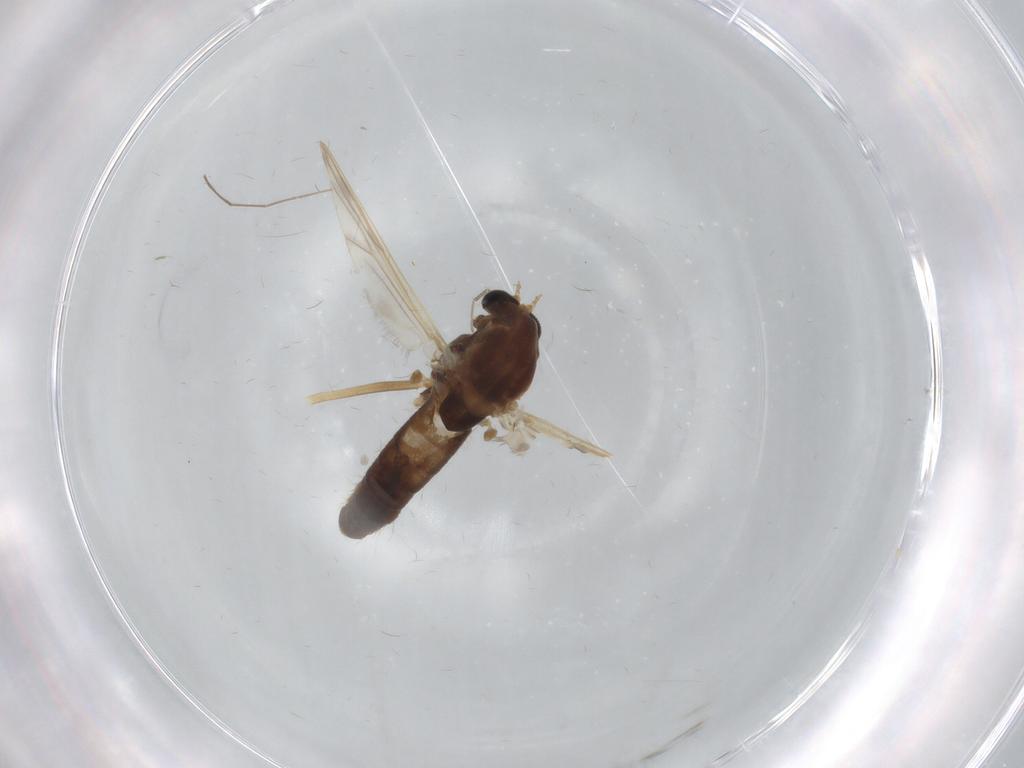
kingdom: Animalia
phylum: Arthropoda
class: Insecta
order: Diptera
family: Chironomidae
